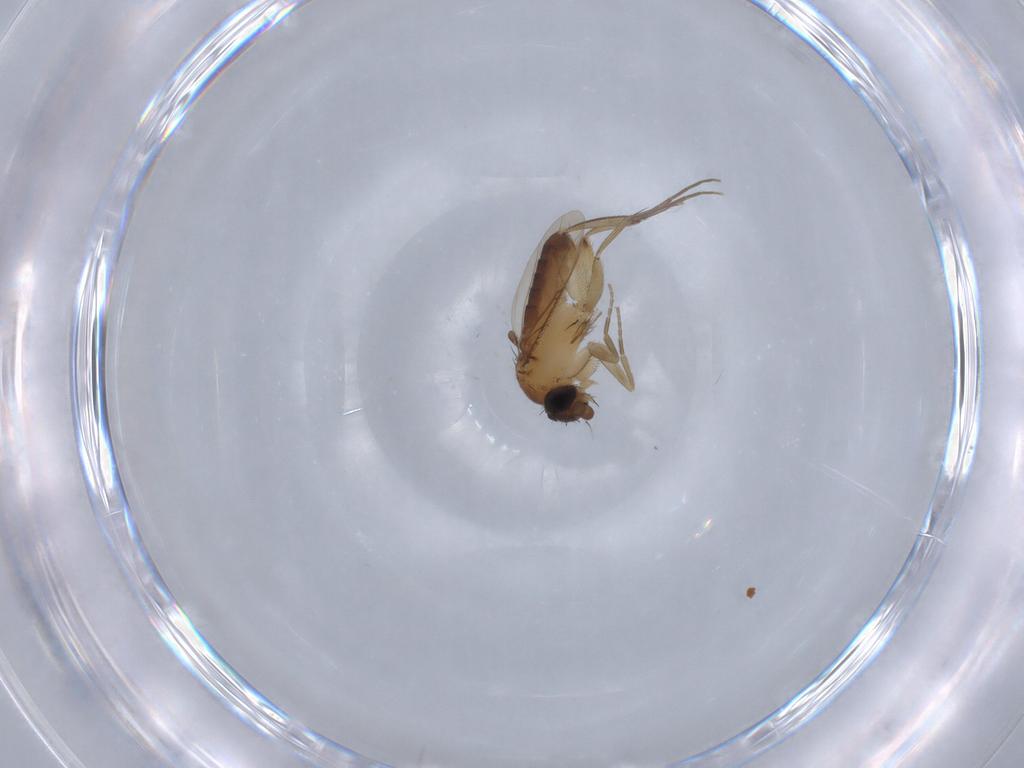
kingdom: Animalia
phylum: Arthropoda
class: Insecta
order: Diptera
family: Phoridae
